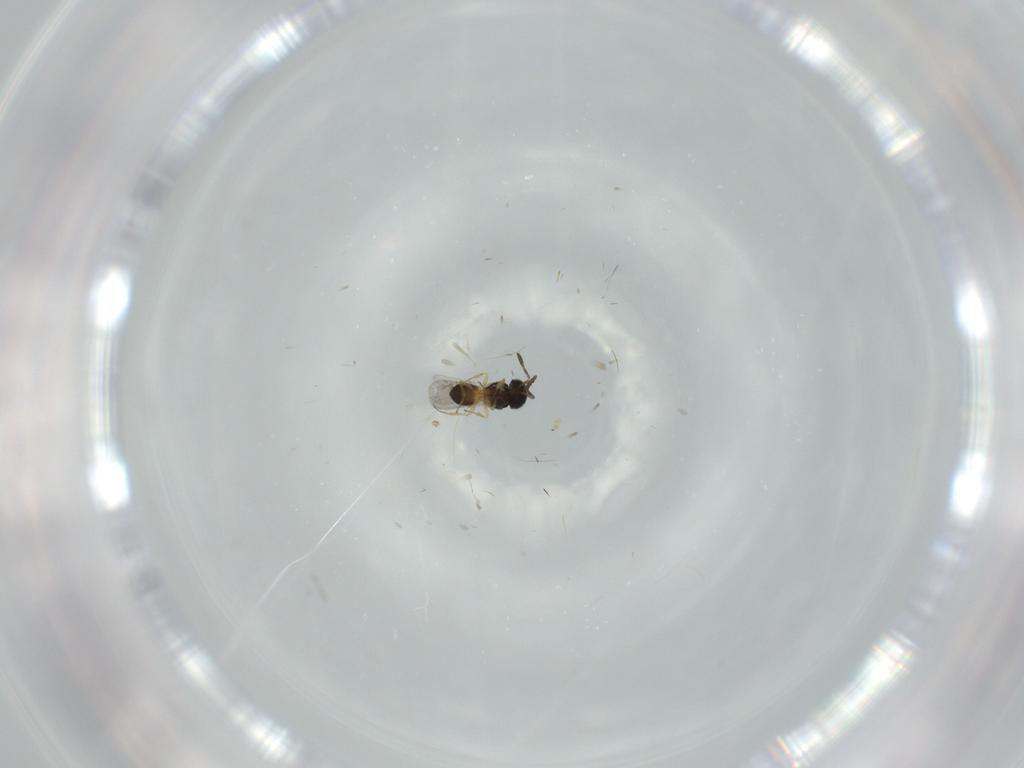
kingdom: Animalia
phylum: Arthropoda
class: Insecta
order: Hymenoptera
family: Scelionidae
